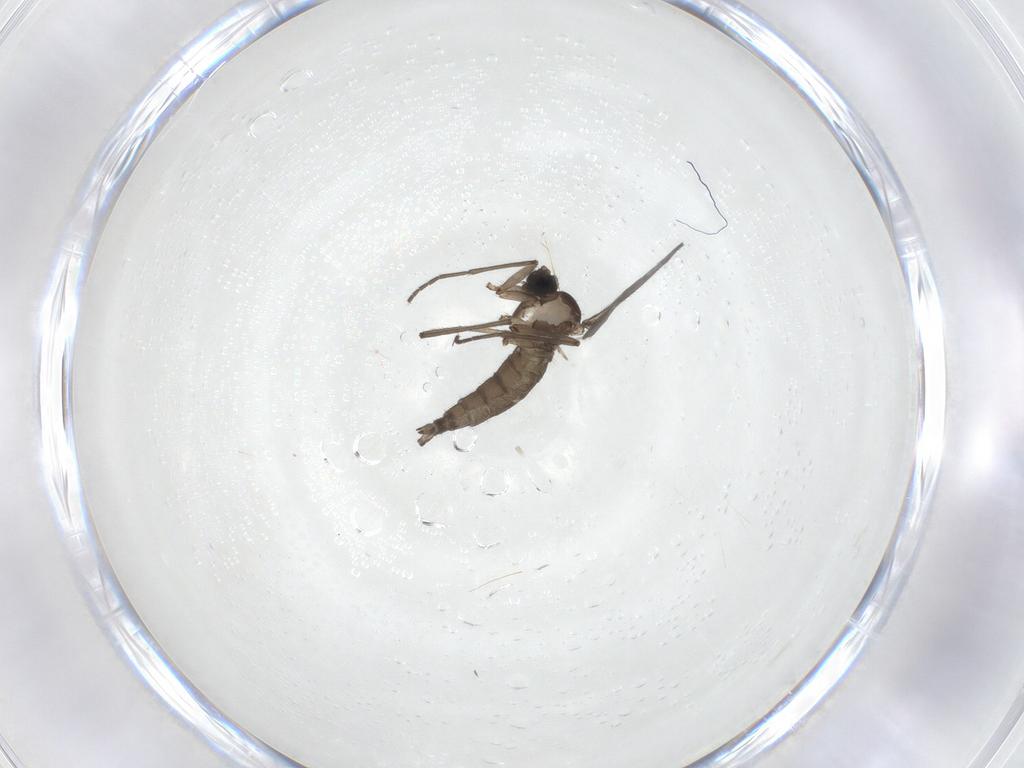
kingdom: Animalia
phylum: Arthropoda
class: Insecta
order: Diptera
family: Sciaridae
